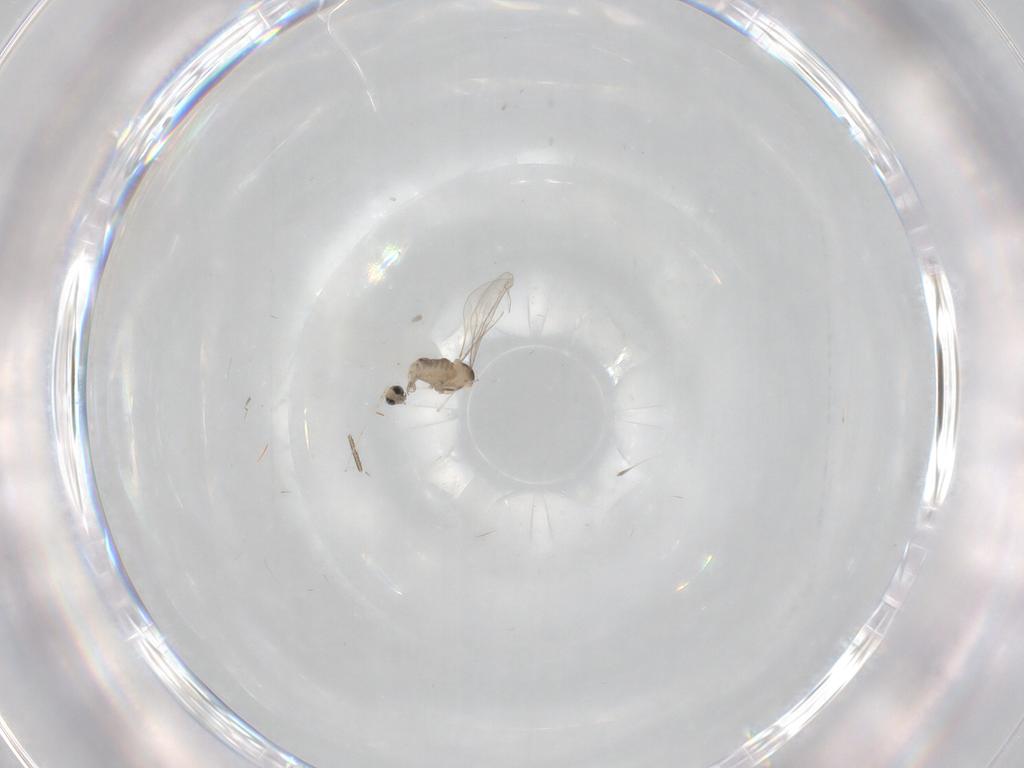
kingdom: Animalia
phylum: Arthropoda
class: Insecta
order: Diptera
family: Cecidomyiidae
